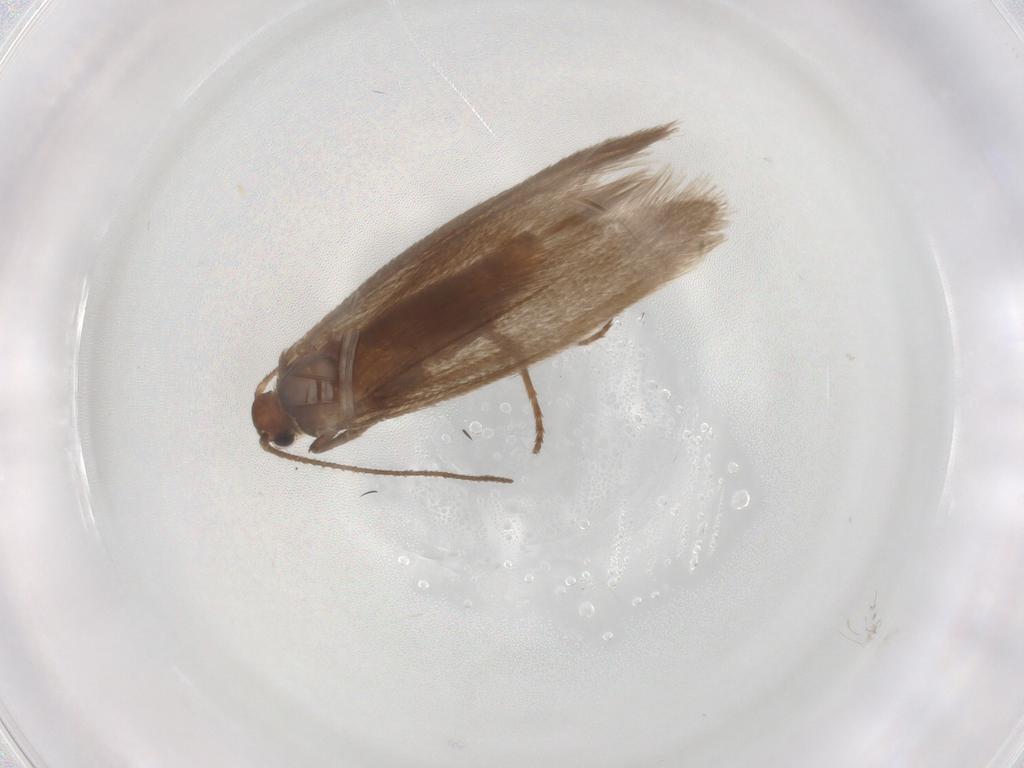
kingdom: Animalia
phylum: Arthropoda
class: Insecta
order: Lepidoptera
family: Limacodidae
